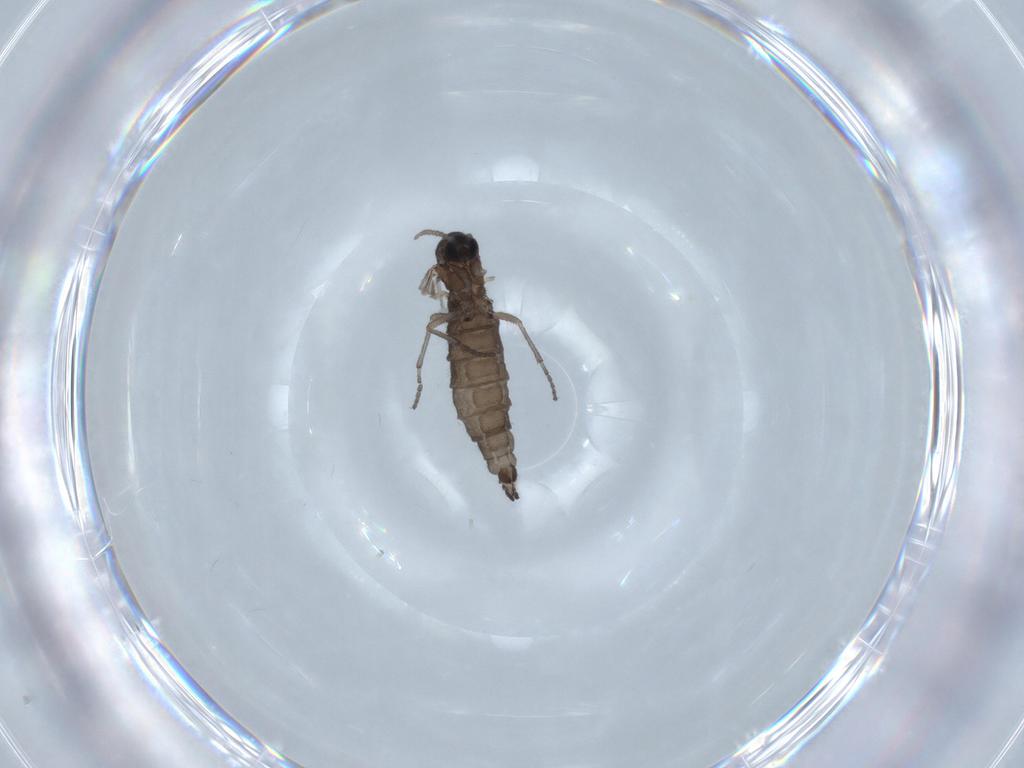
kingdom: Animalia
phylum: Arthropoda
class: Insecta
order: Diptera
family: Sciaridae
